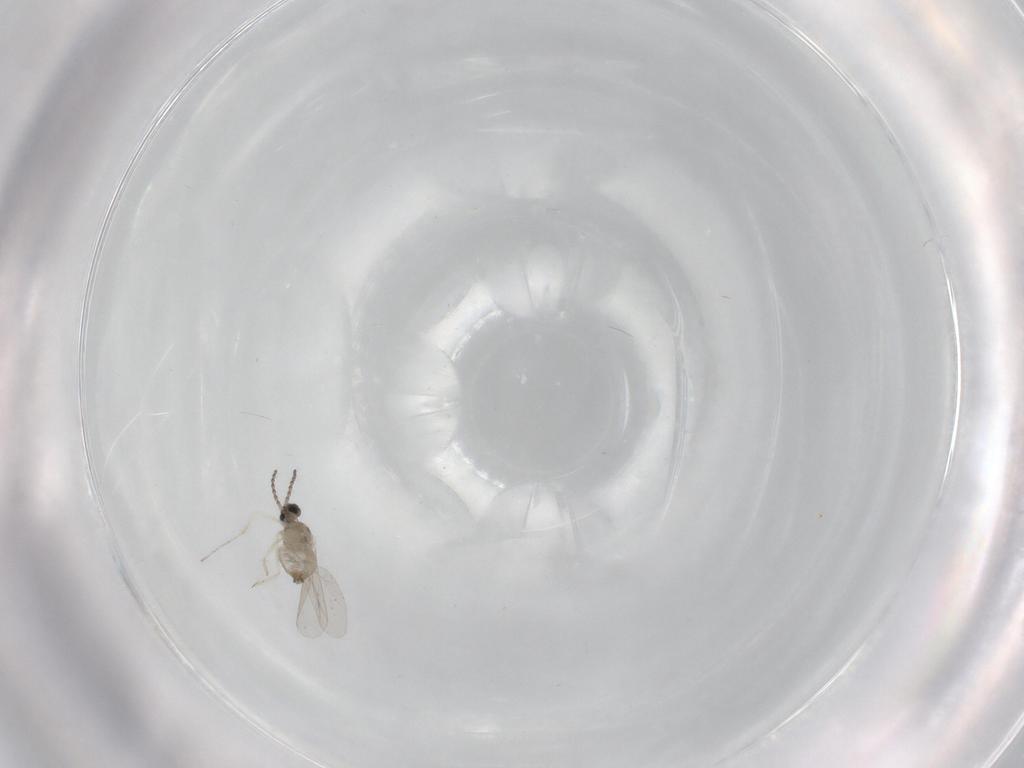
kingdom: Animalia
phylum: Arthropoda
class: Insecta
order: Diptera
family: Cecidomyiidae
